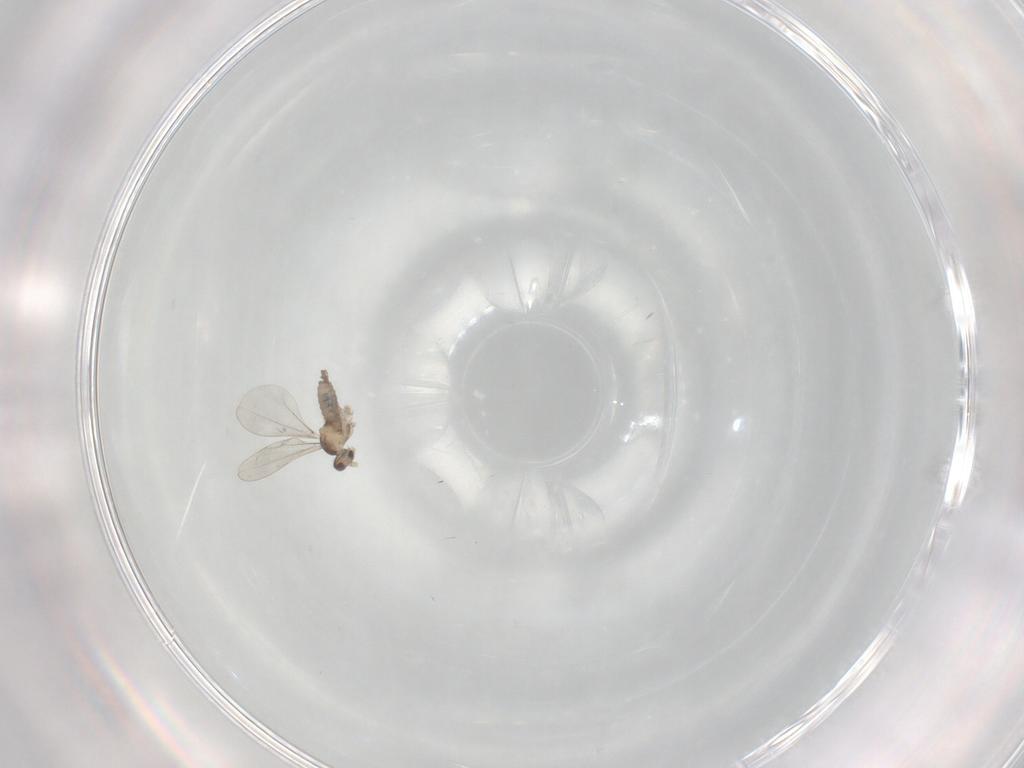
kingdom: Animalia
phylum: Arthropoda
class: Insecta
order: Diptera
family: Cecidomyiidae
